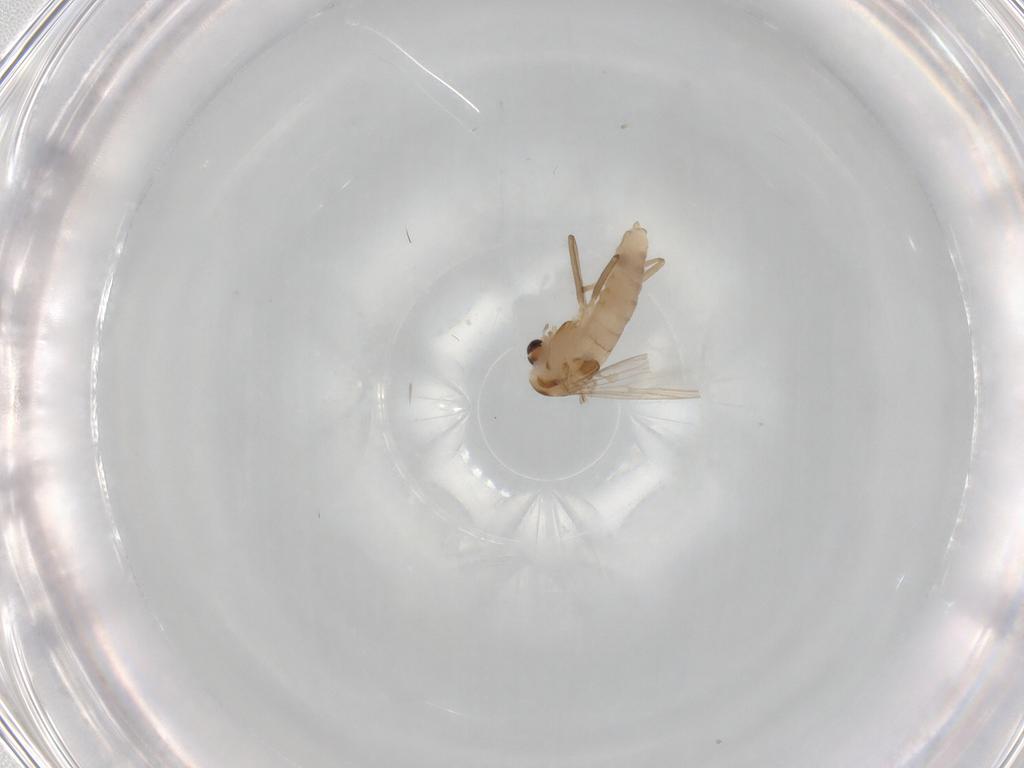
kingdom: Animalia
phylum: Arthropoda
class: Insecta
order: Diptera
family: Chironomidae
